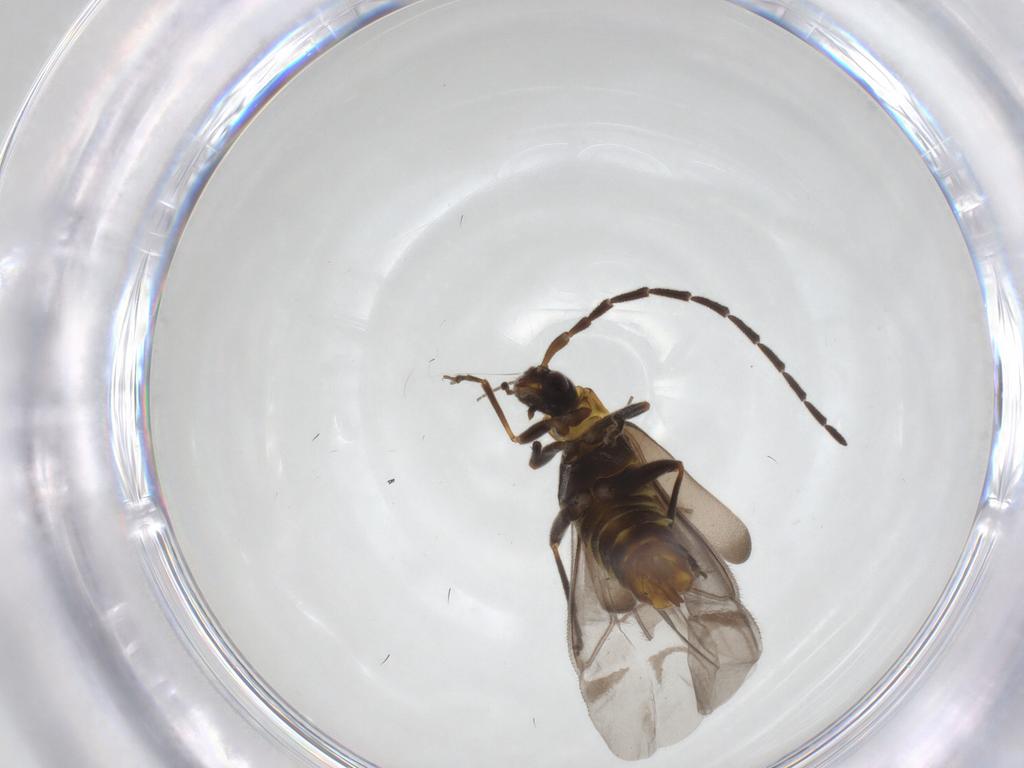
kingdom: Animalia
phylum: Arthropoda
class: Insecta
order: Coleoptera
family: Cantharidae
